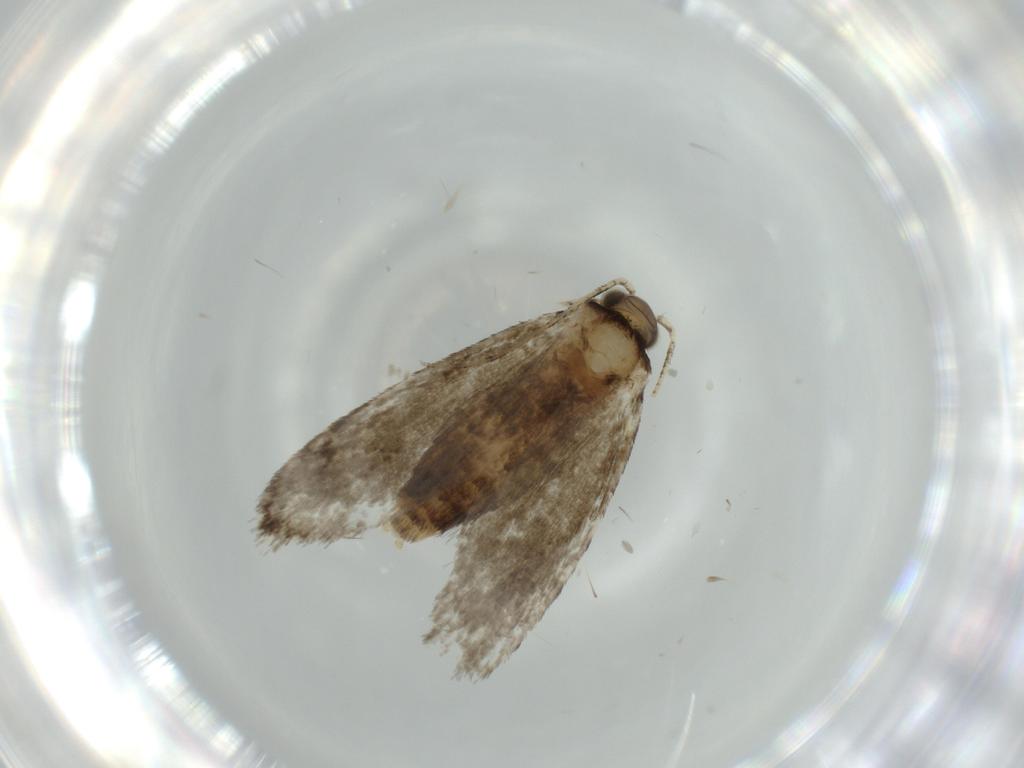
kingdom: Animalia
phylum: Arthropoda
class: Insecta
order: Lepidoptera
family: Tineidae
